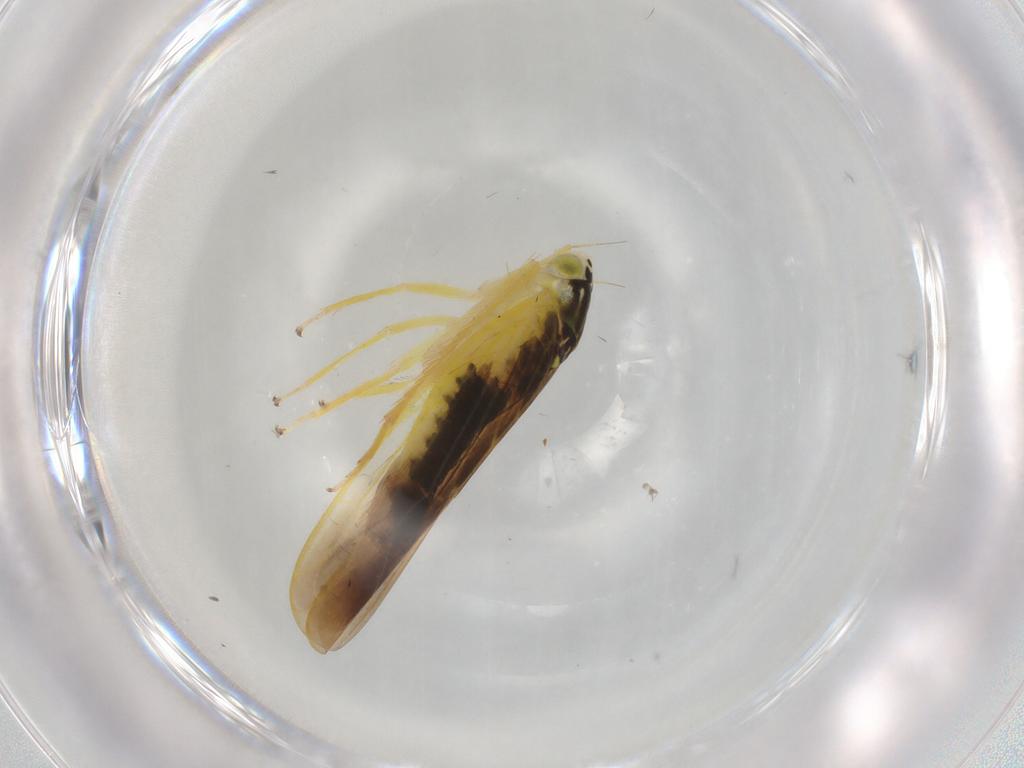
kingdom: Animalia
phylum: Arthropoda
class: Insecta
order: Hemiptera
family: Cicadellidae
